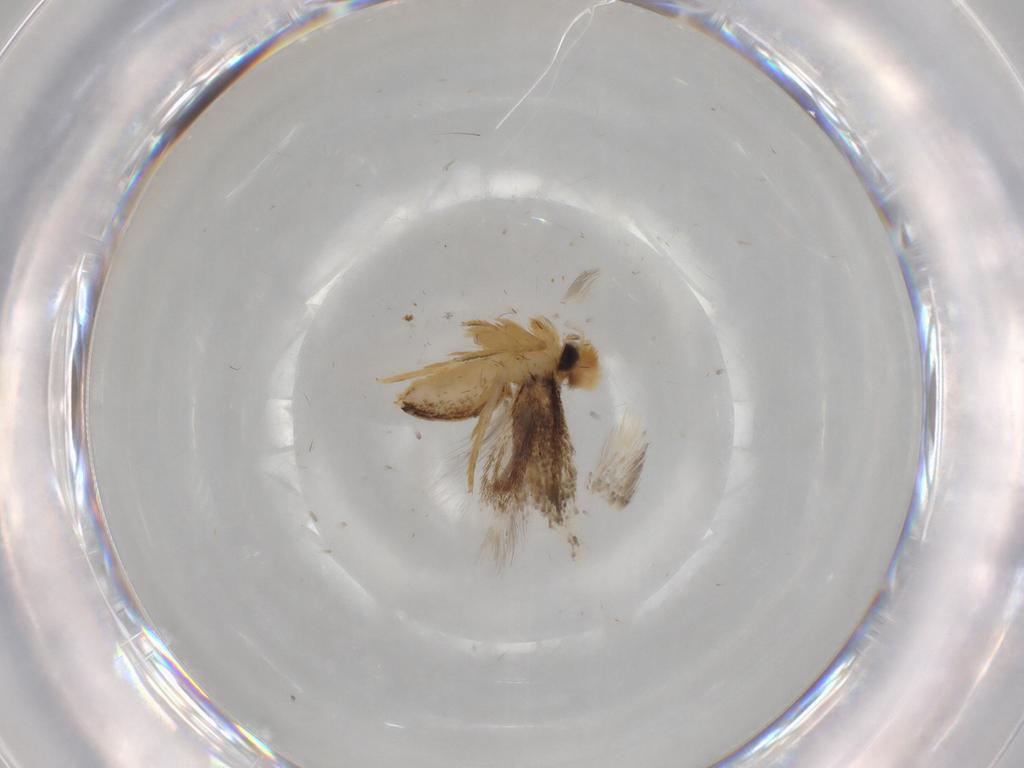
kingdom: Animalia
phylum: Arthropoda
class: Insecta
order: Lepidoptera
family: Nepticulidae
